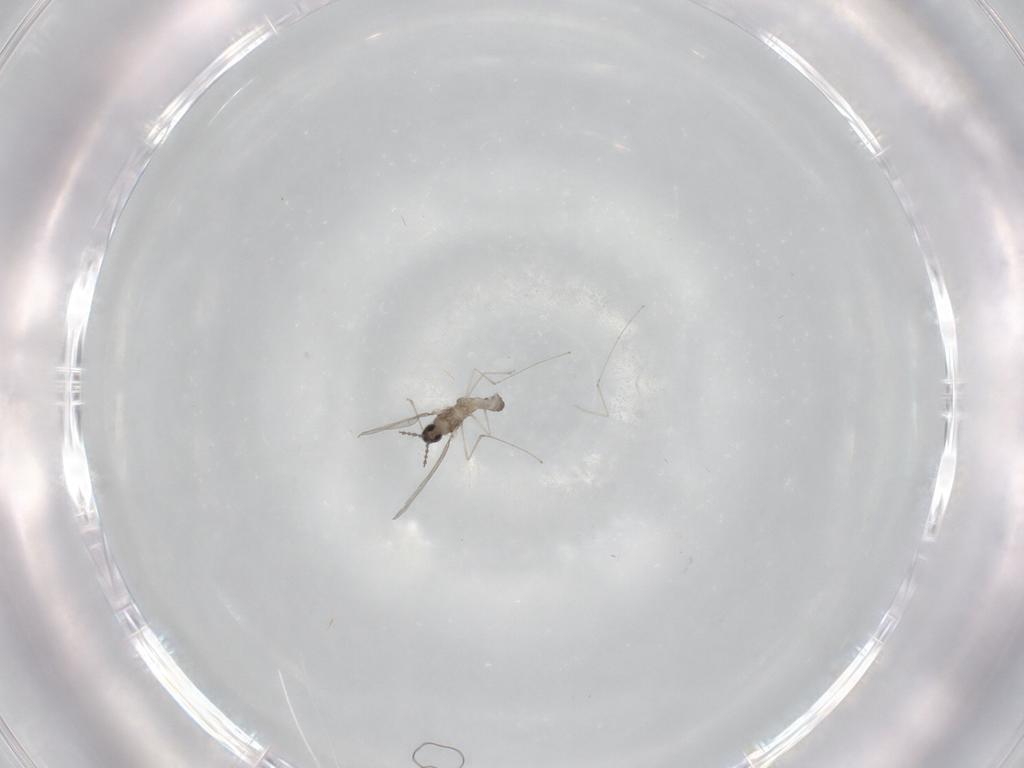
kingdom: Animalia
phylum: Arthropoda
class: Insecta
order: Diptera
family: Cecidomyiidae
